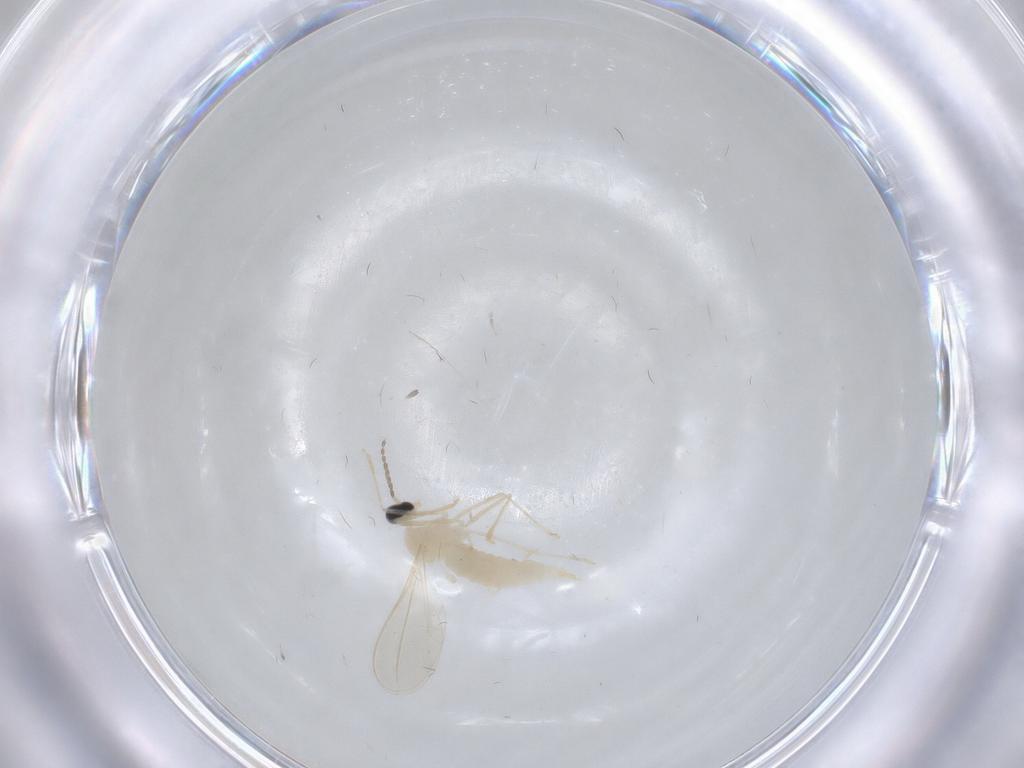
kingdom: Animalia
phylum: Arthropoda
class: Insecta
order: Diptera
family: Cecidomyiidae
